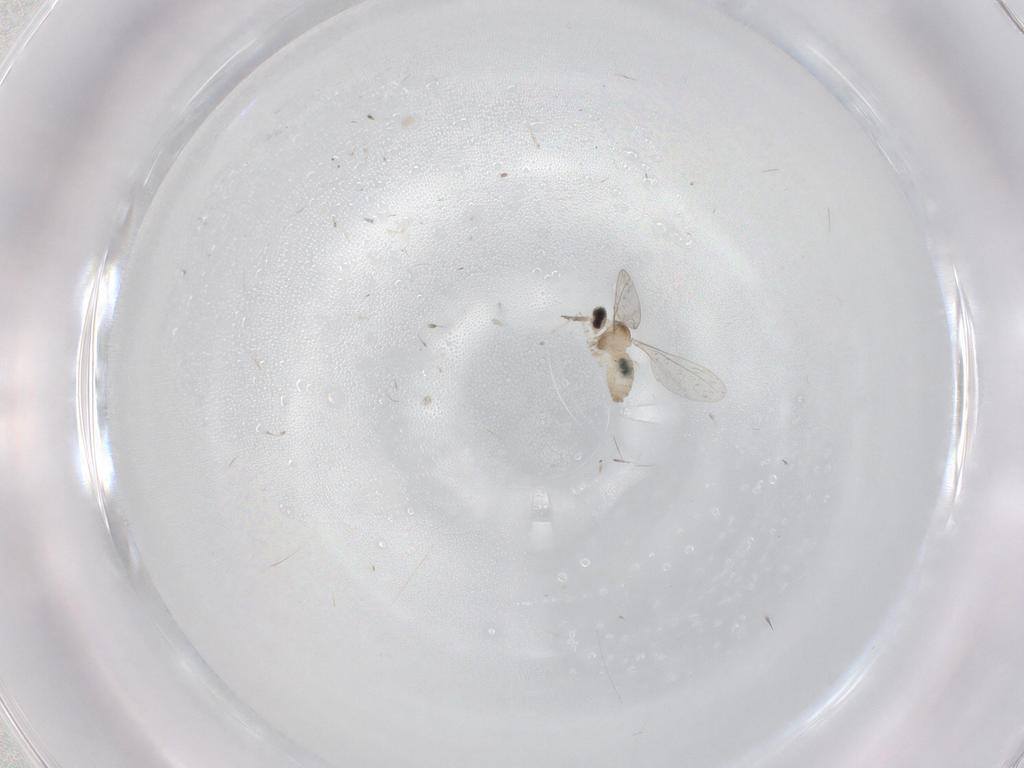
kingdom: Animalia
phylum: Arthropoda
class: Insecta
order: Diptera
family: Cecidomyiidae
